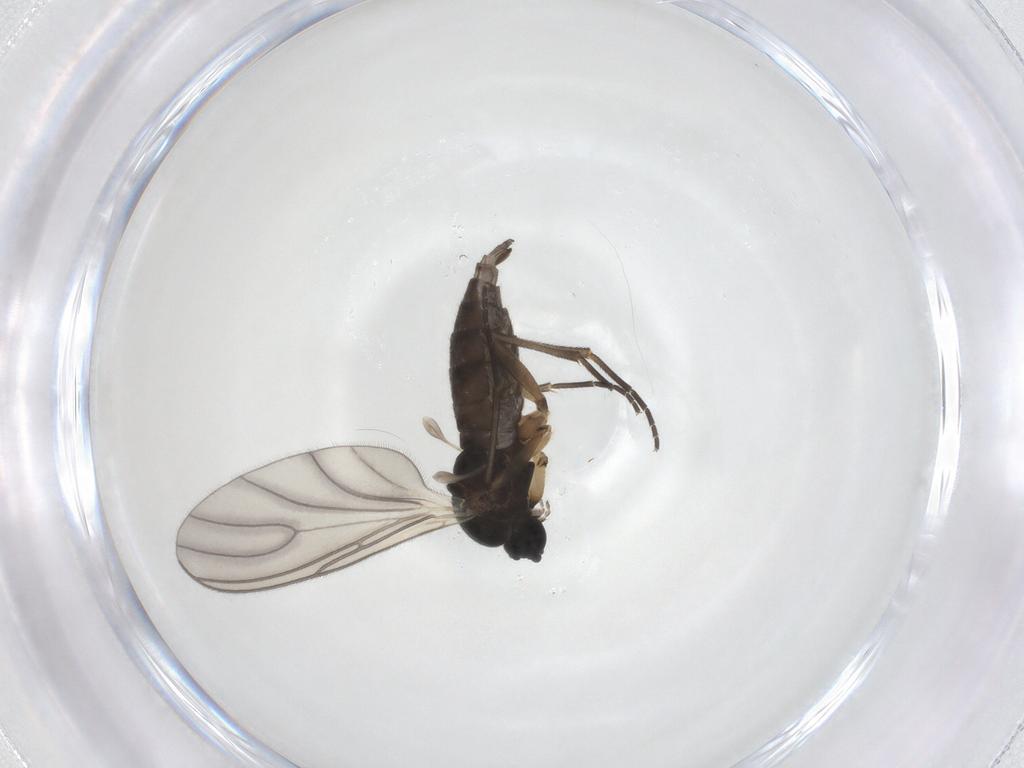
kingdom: Animalia
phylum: Arthropoda
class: Insecta
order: Diptera
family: Sciaridae
